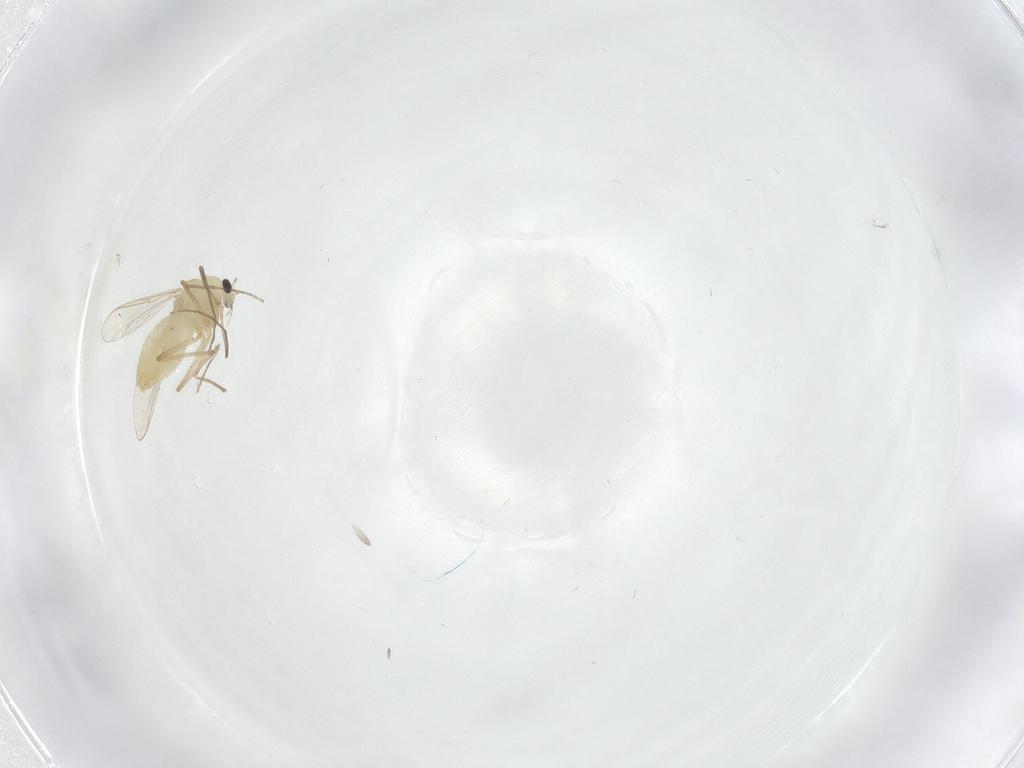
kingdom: Animalia
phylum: Arthropoda
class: Insecta
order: Diptera
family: Chironomidae
